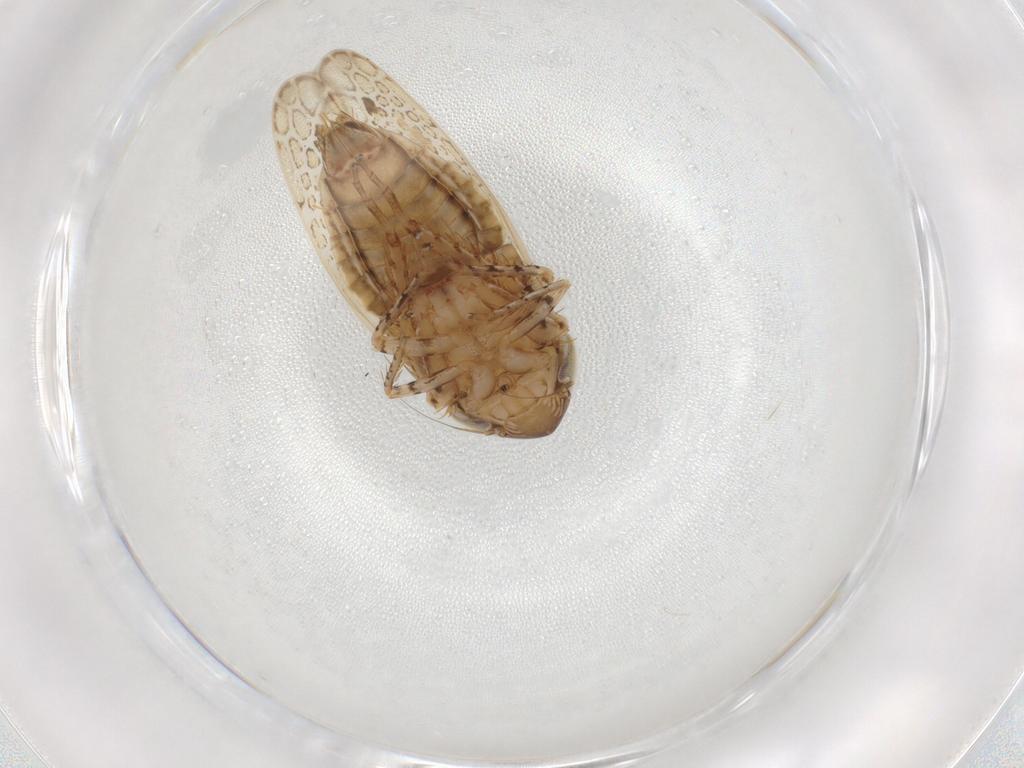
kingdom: Animalia
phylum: Arthropoda
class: Insecta
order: Hemiptera
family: Cicadellidae
